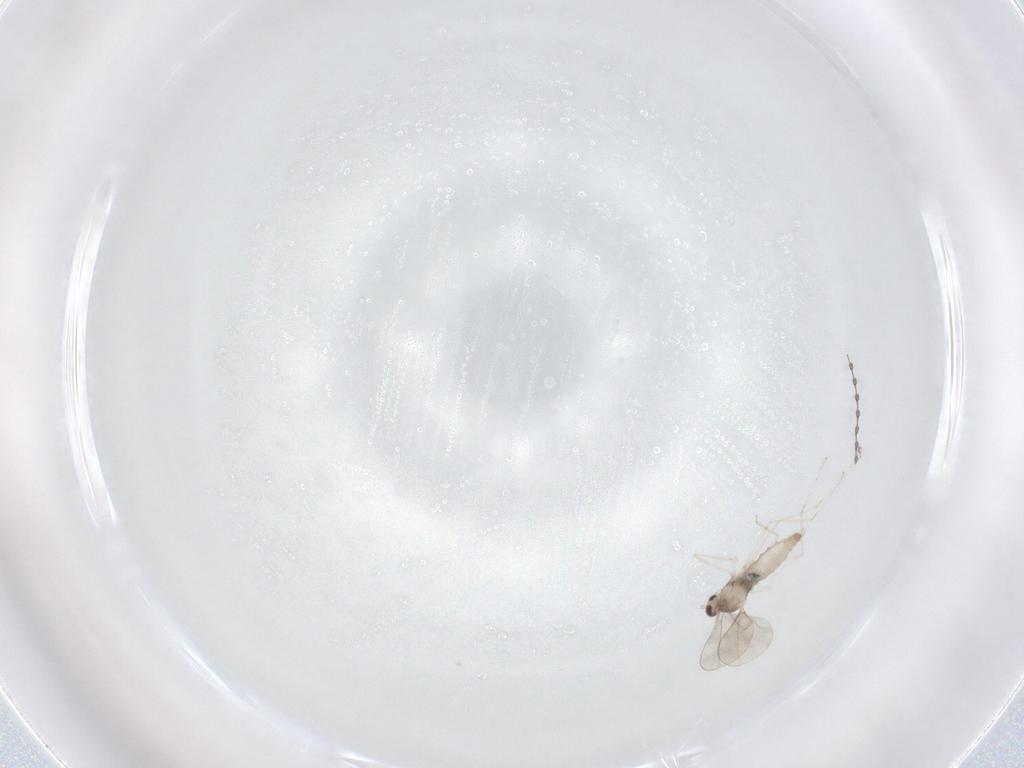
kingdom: Animalia
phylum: Arthropoda
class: Insecta
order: Diptera
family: Cecidomyiidae
